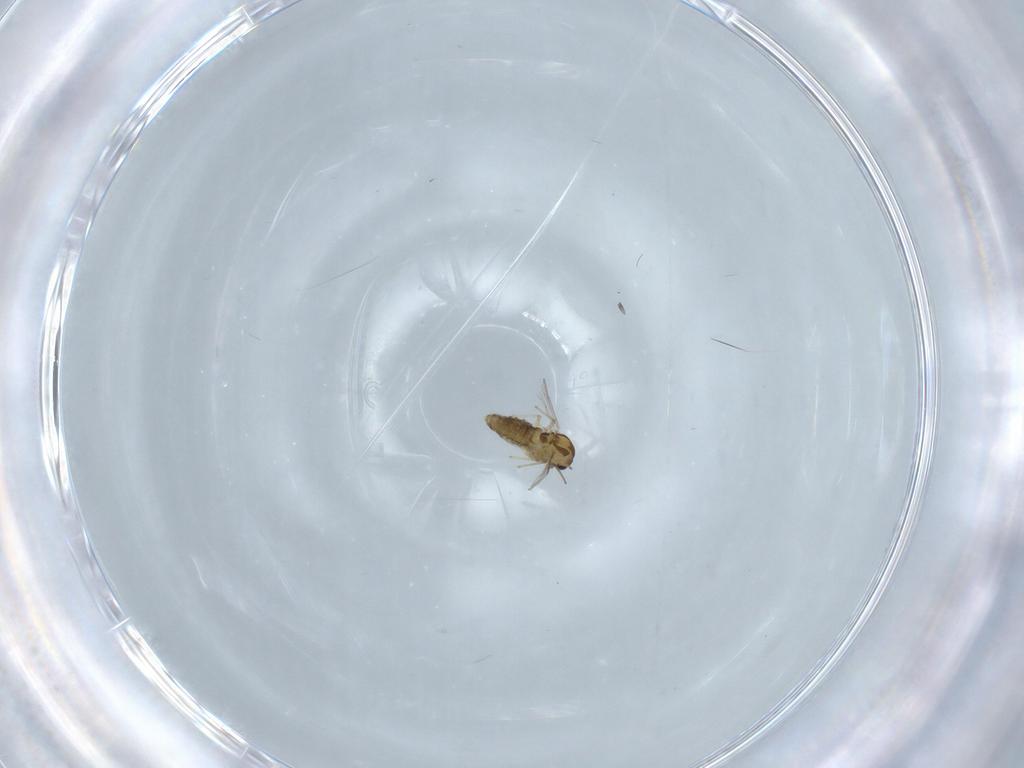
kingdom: Animalia
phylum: Arthropoda
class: Insecta
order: Diptera
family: Chironomidae
